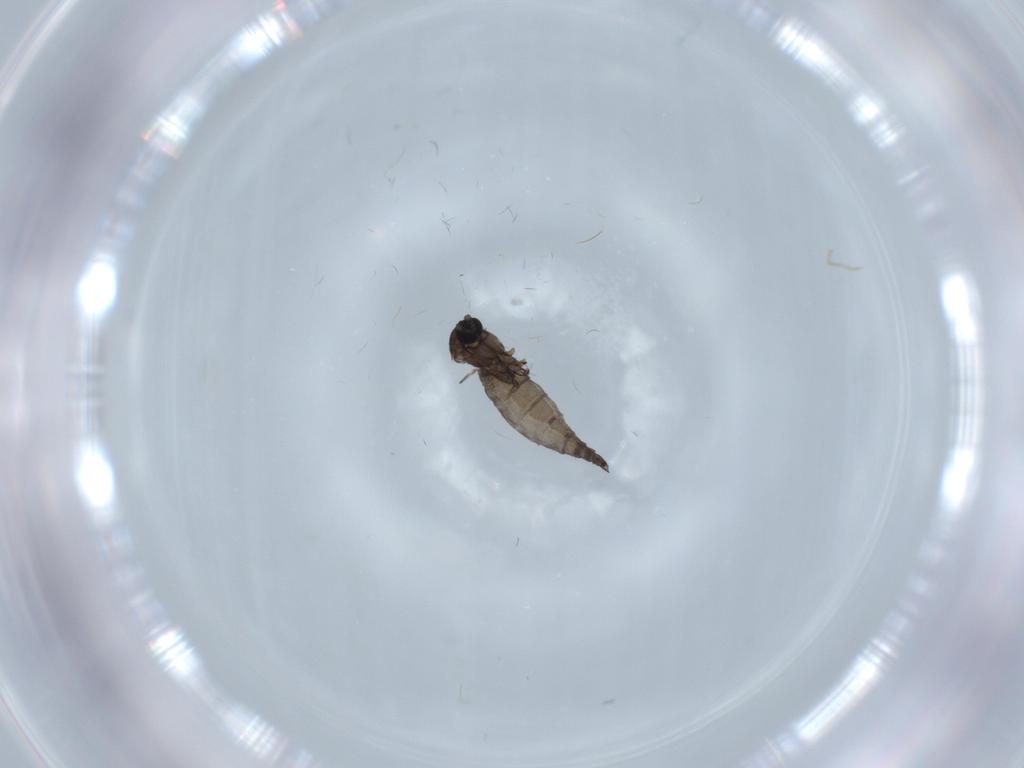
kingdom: Animalia
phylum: Arthropoda
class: Insecta
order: Diptera
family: Sciaridae
